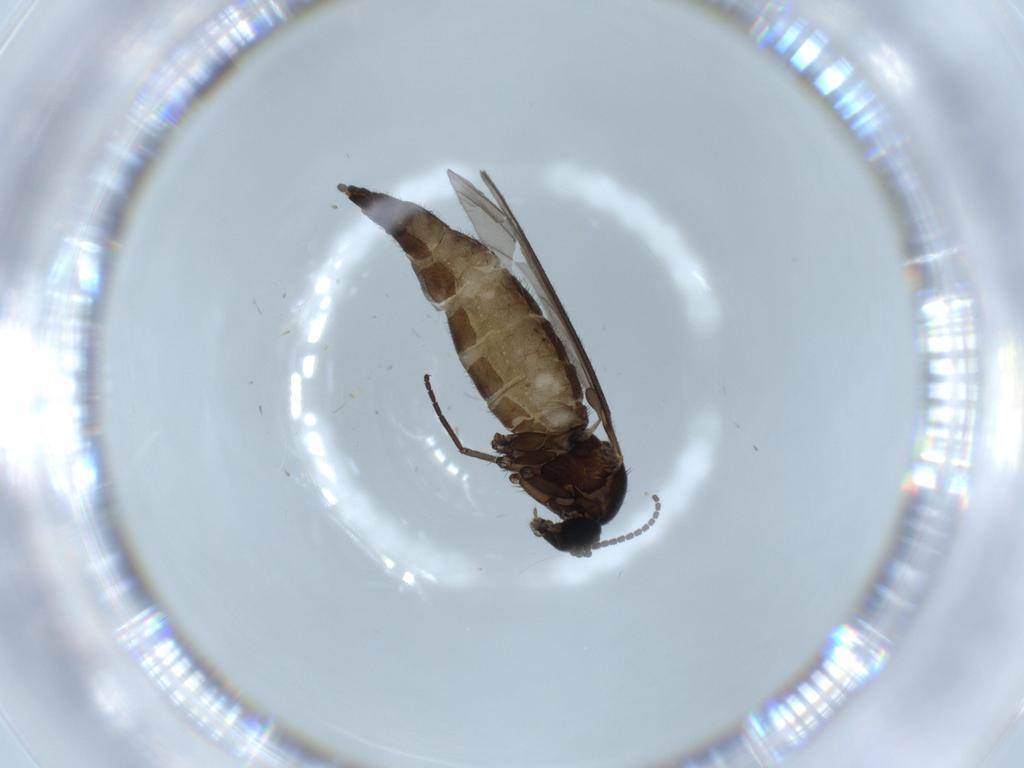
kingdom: Animalia
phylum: Arthropoda
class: Insecta
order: Diptera
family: Sciaridae
